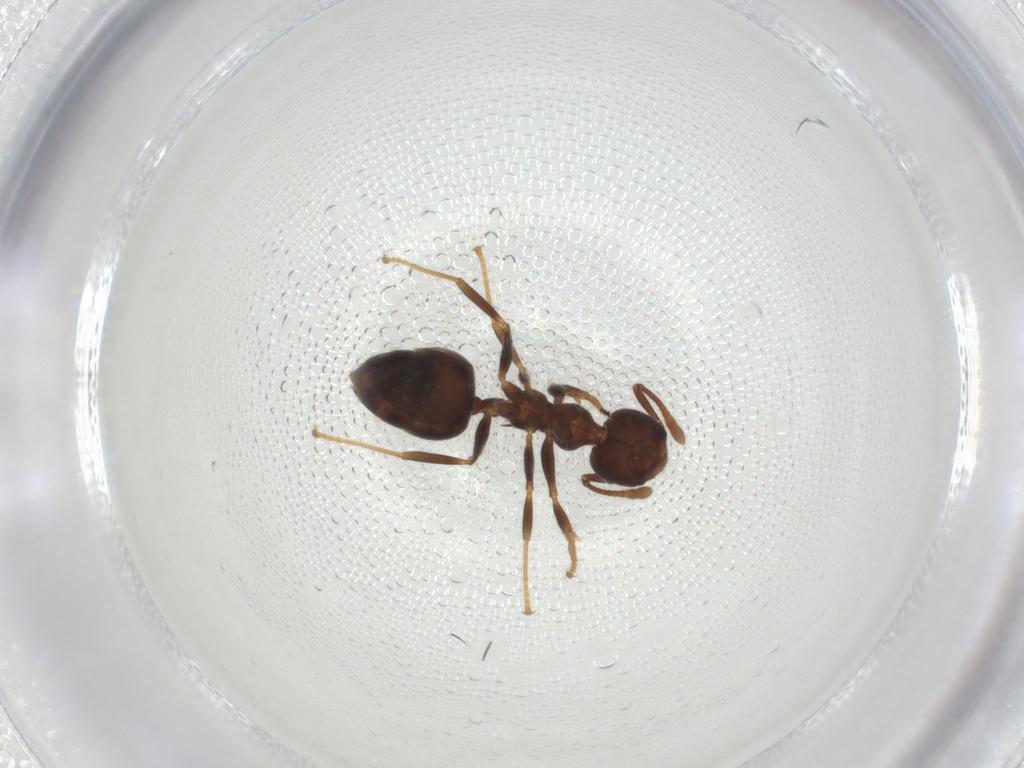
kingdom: Animalia
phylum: Arthropoda
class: Insecta
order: Hymenoptera
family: Formicidae
